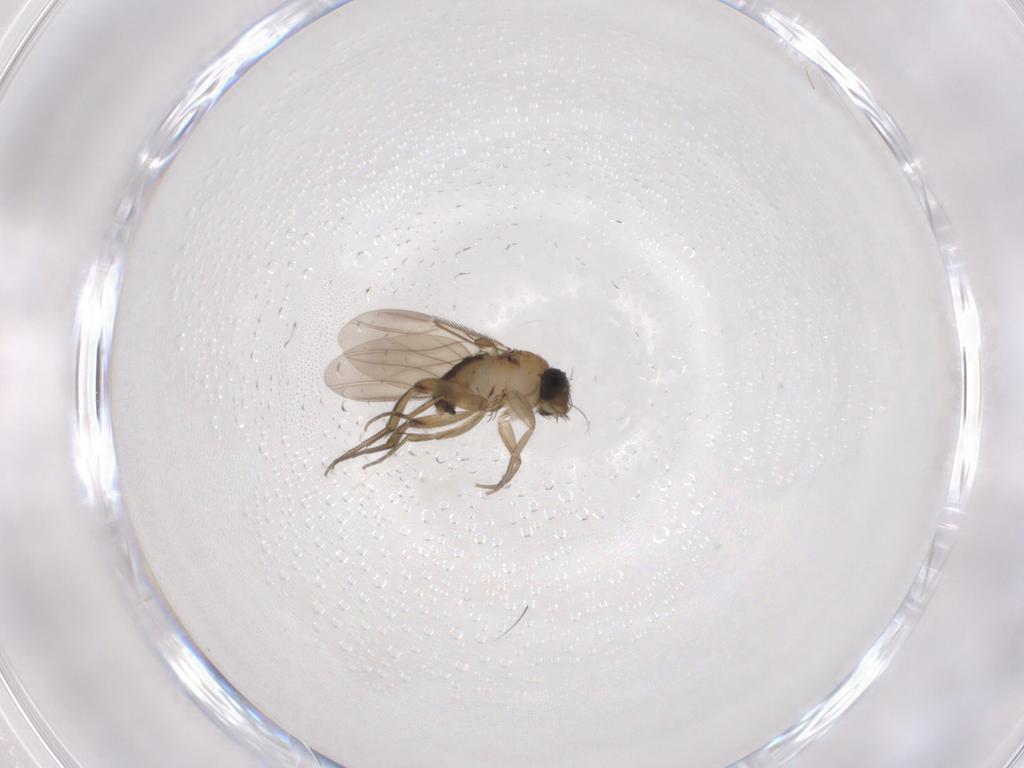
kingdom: Animalia
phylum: Arthropoda
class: Insecta
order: Diptera
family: Phoridae
